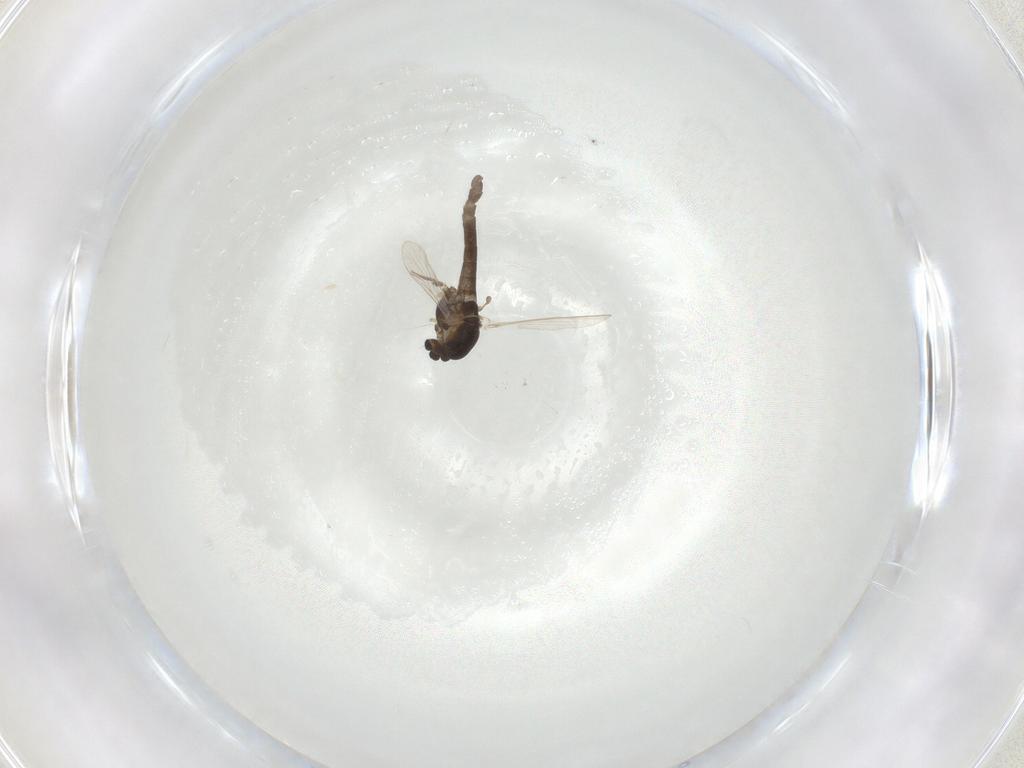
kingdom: Animalia
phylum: Arthropoda
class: Insecta
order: Diptera
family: Chironomidae
